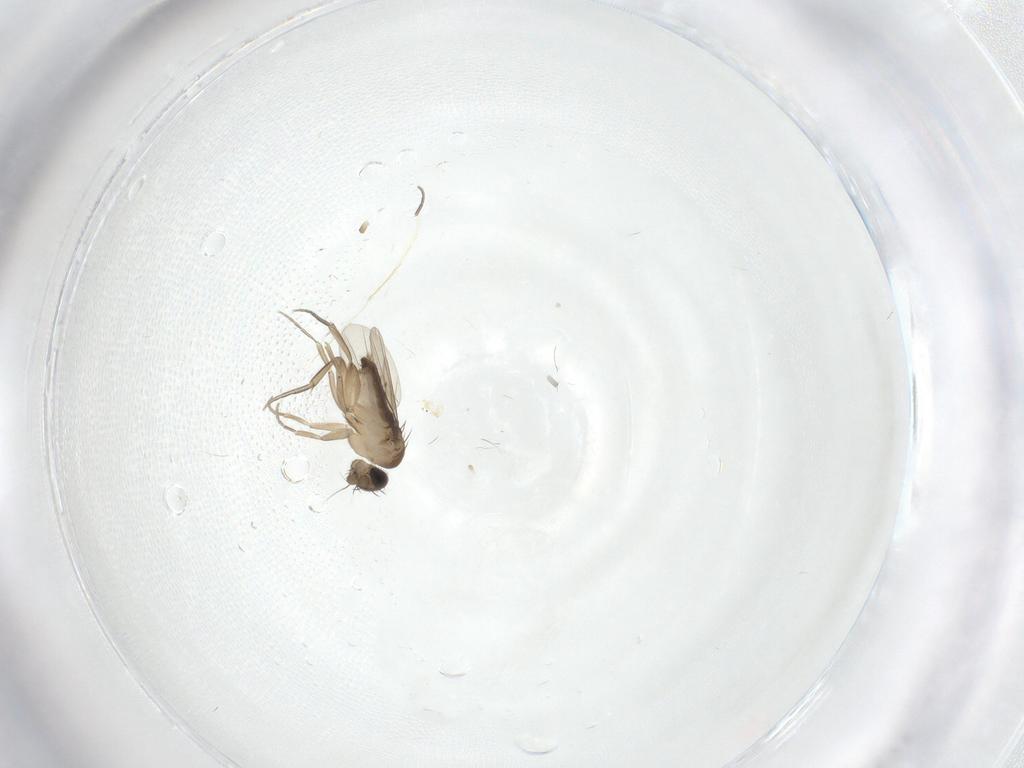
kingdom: Animalia
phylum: Arthropoda
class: Insecta
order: Diptera
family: Phoridae
